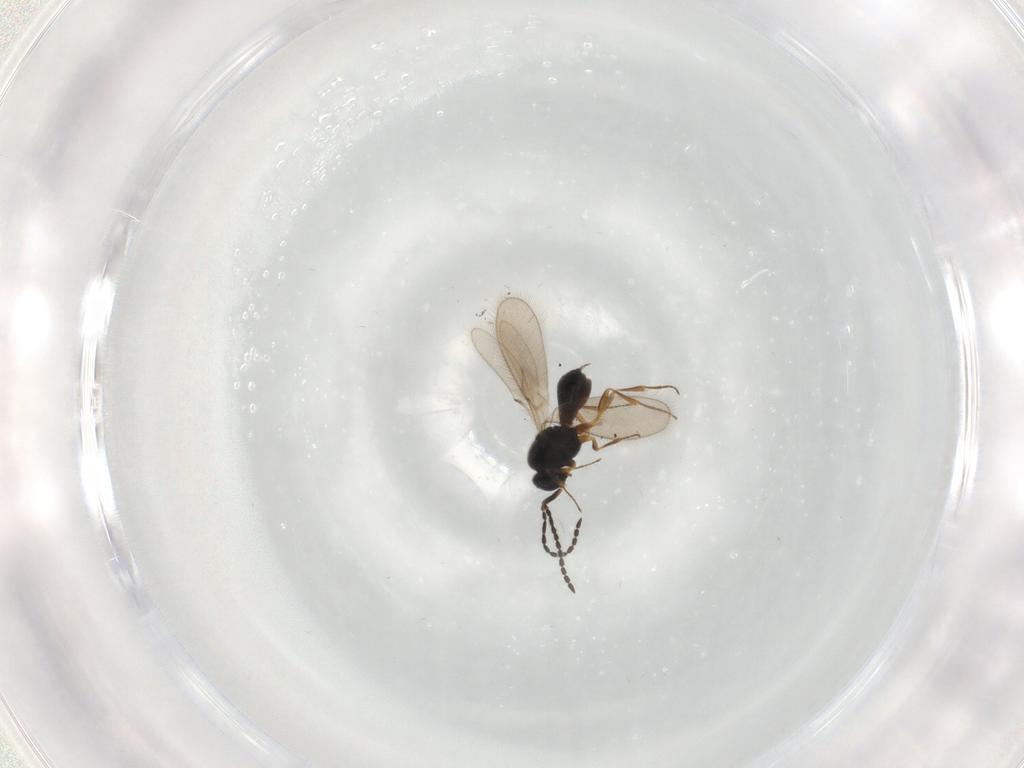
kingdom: Animalia
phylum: Arthropoda
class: Insecta
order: Hymenoptera
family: Scelionidae
